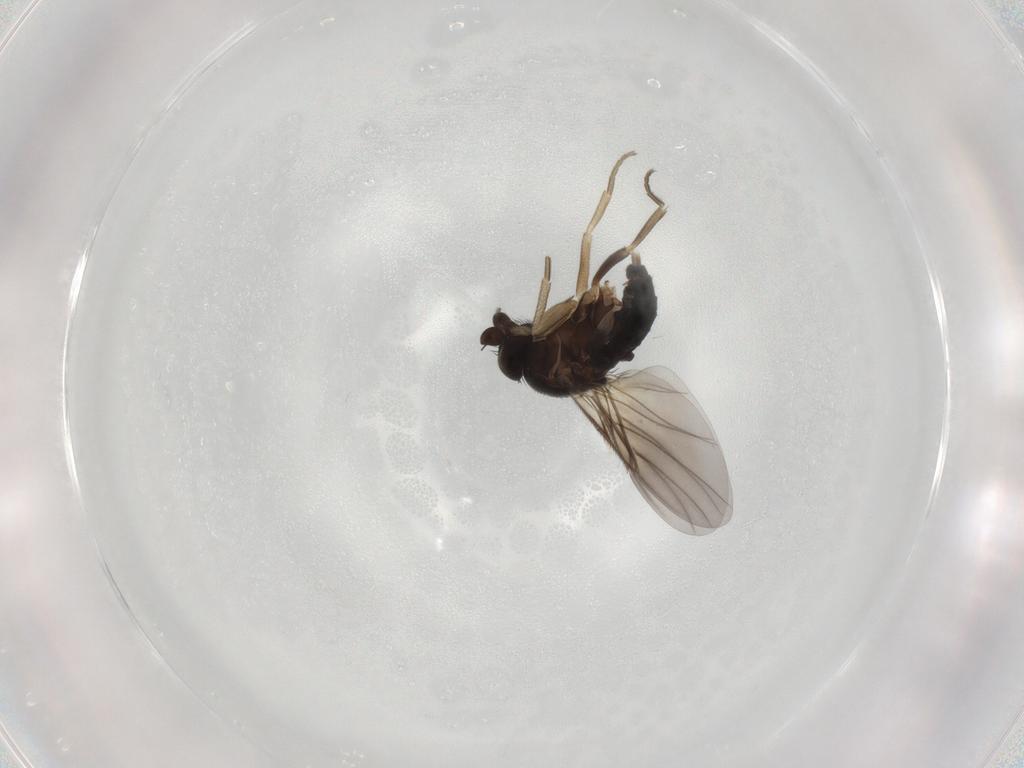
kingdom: Animalia
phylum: Arthropoda
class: Insecta
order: Diptera
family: Phoridae
